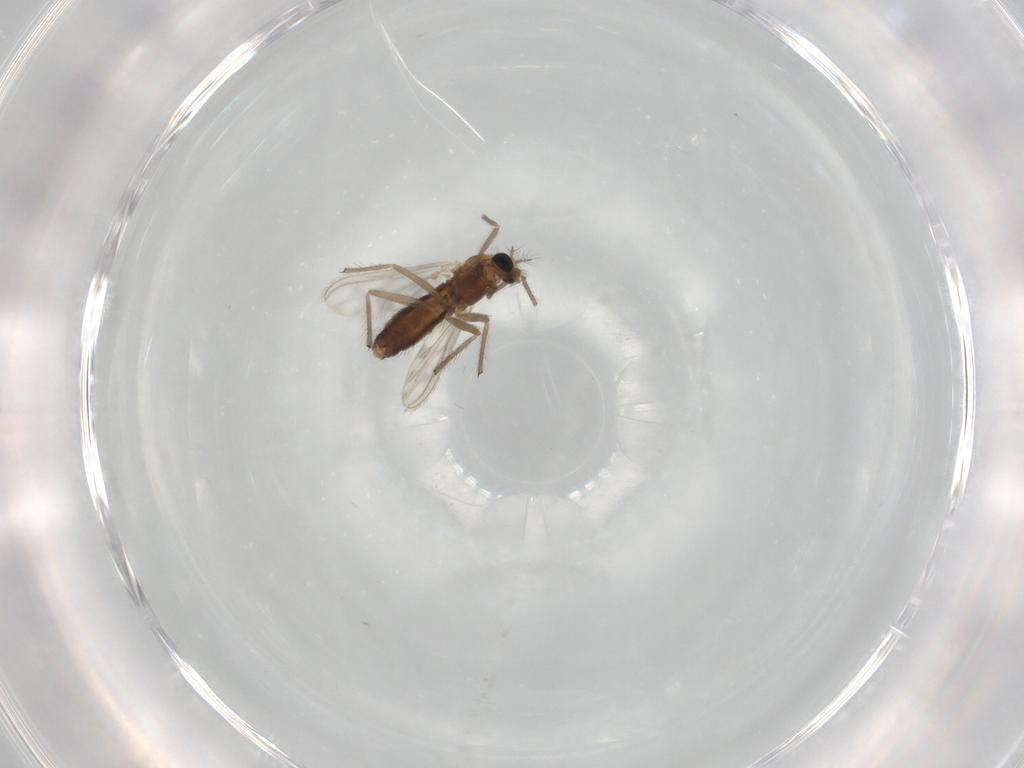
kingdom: Animalia
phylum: Arthropoda
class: Insecta
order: Diptera
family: Chironomidae
